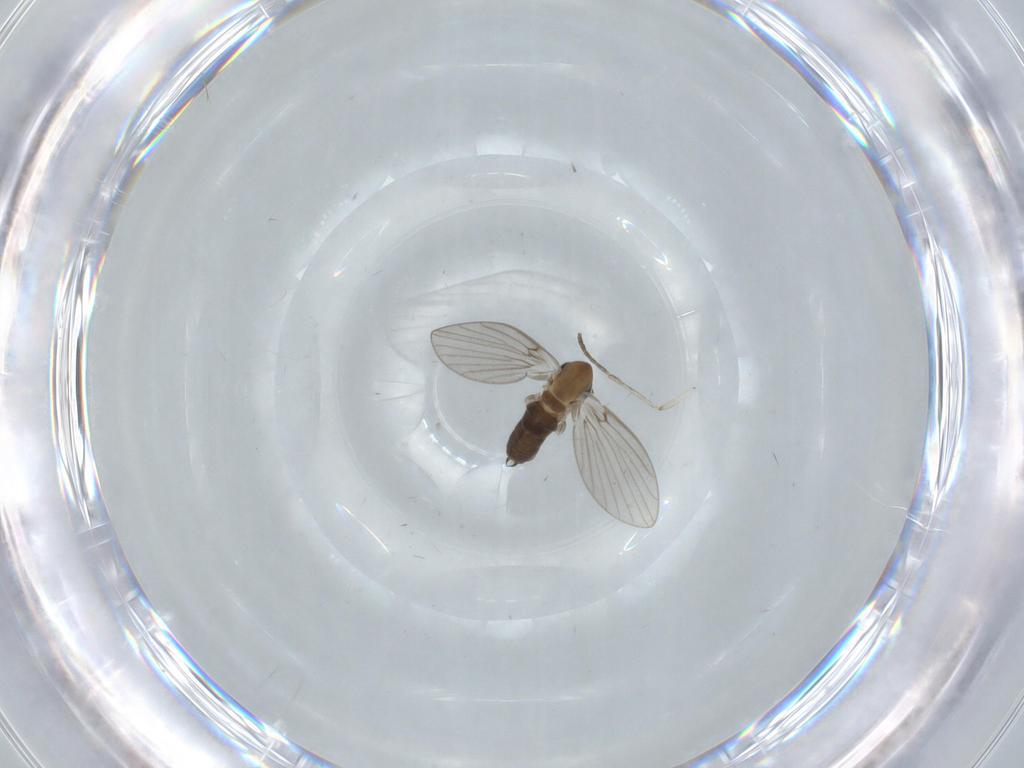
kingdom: Animalia
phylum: Arthropoda
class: Insecta
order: Diptera
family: Psychodidae
